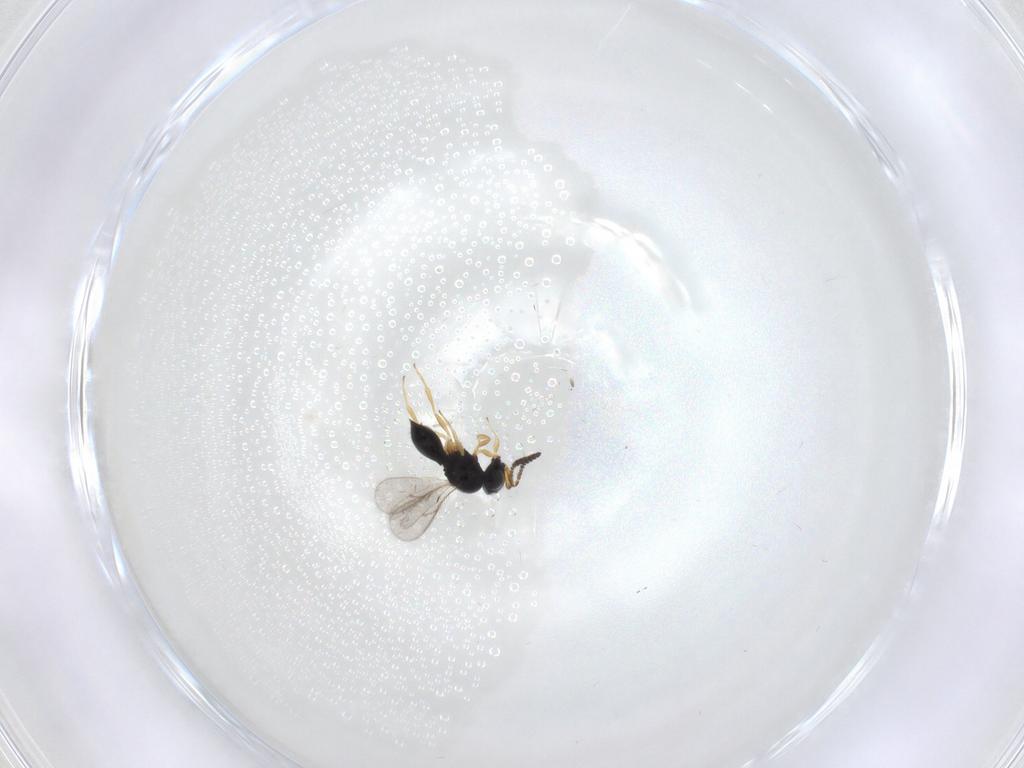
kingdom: Animalia
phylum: Arthropoda
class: Insecta
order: Hymenoptera
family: Scelionidae
